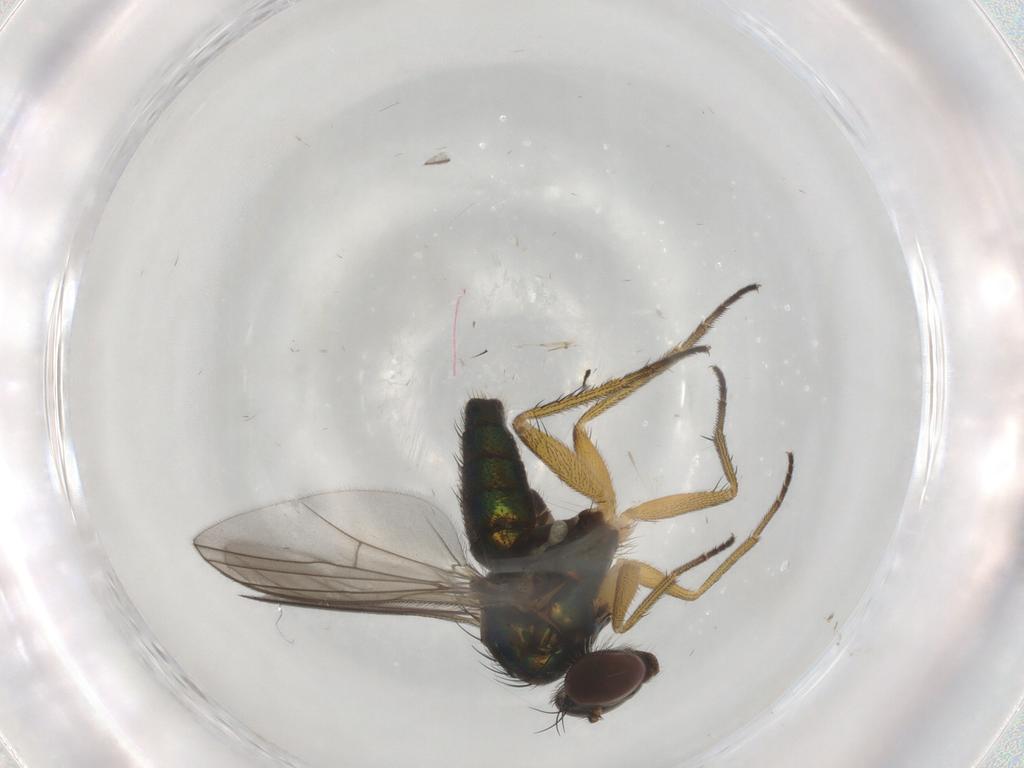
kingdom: Animalia
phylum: Arthropoda
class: Insecta
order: Diptera
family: Dolichopodidae
